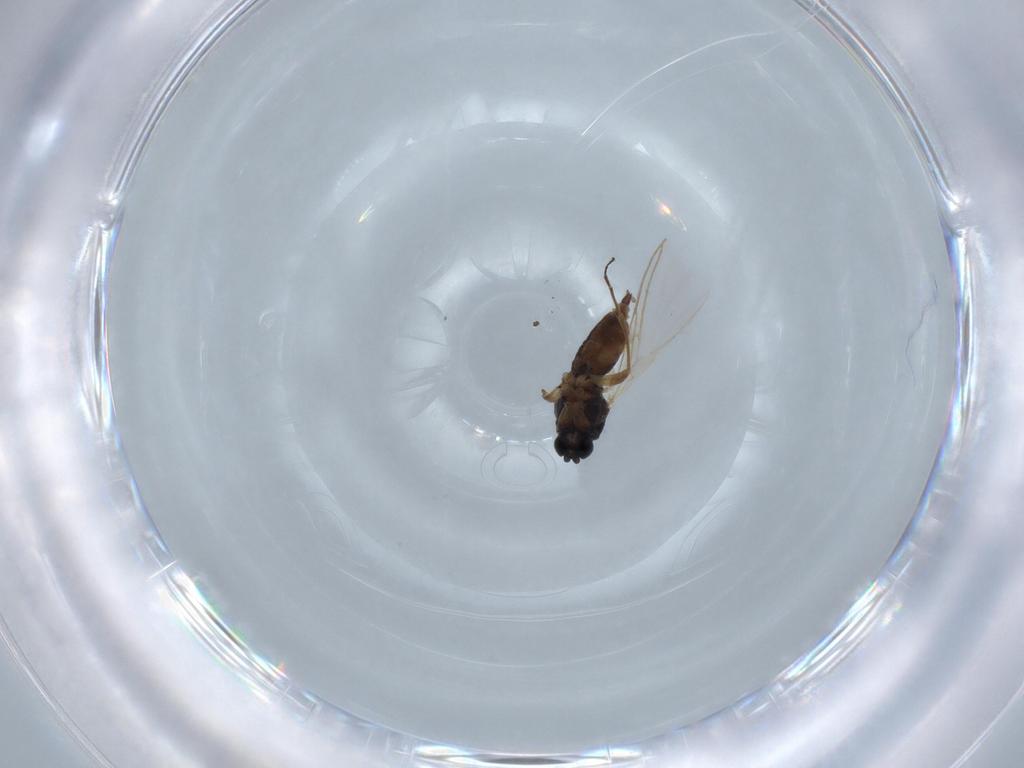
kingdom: Animalia
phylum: Arthropoda
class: Insecta
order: Diptera
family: Sciaridae
